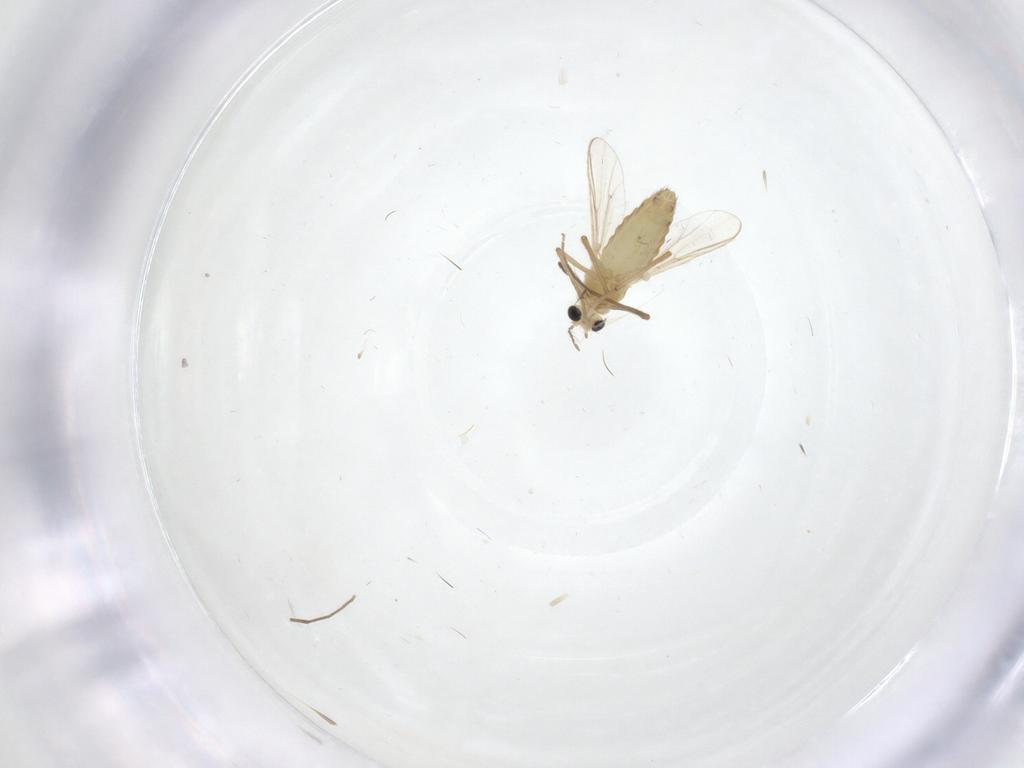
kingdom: Animalia
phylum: Arthropoda
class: Insecta
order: Diptera
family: Chironomidae
